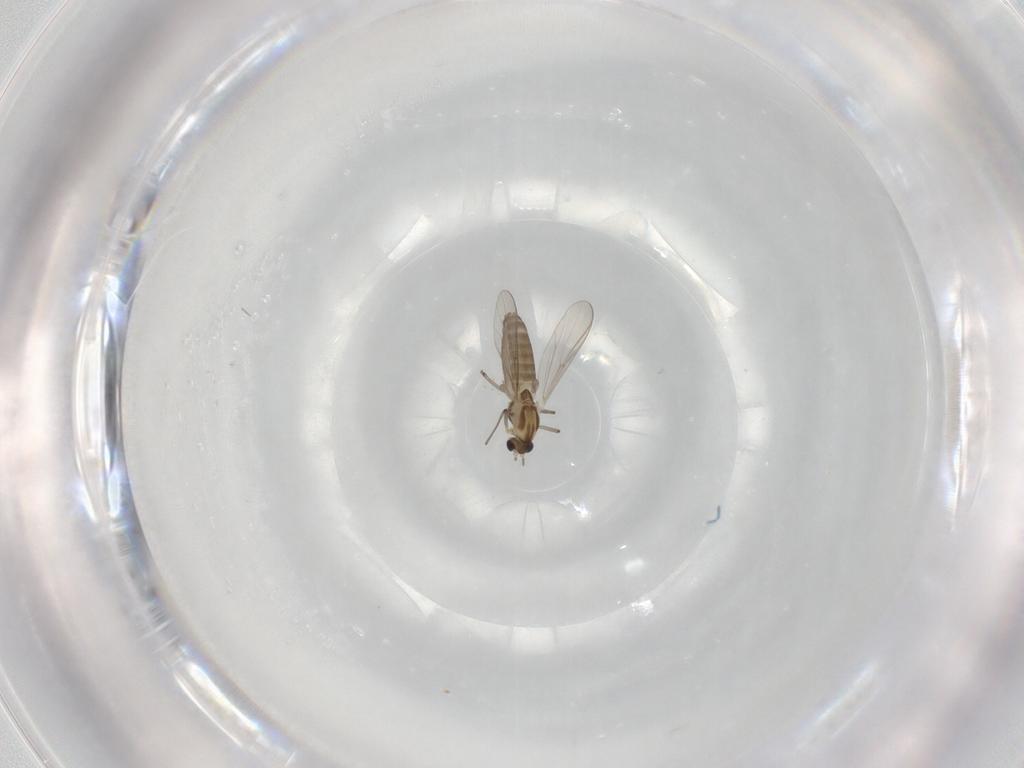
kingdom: Animalia
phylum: Arthropoda
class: Insecta
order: Diptera
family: Chironomidae
